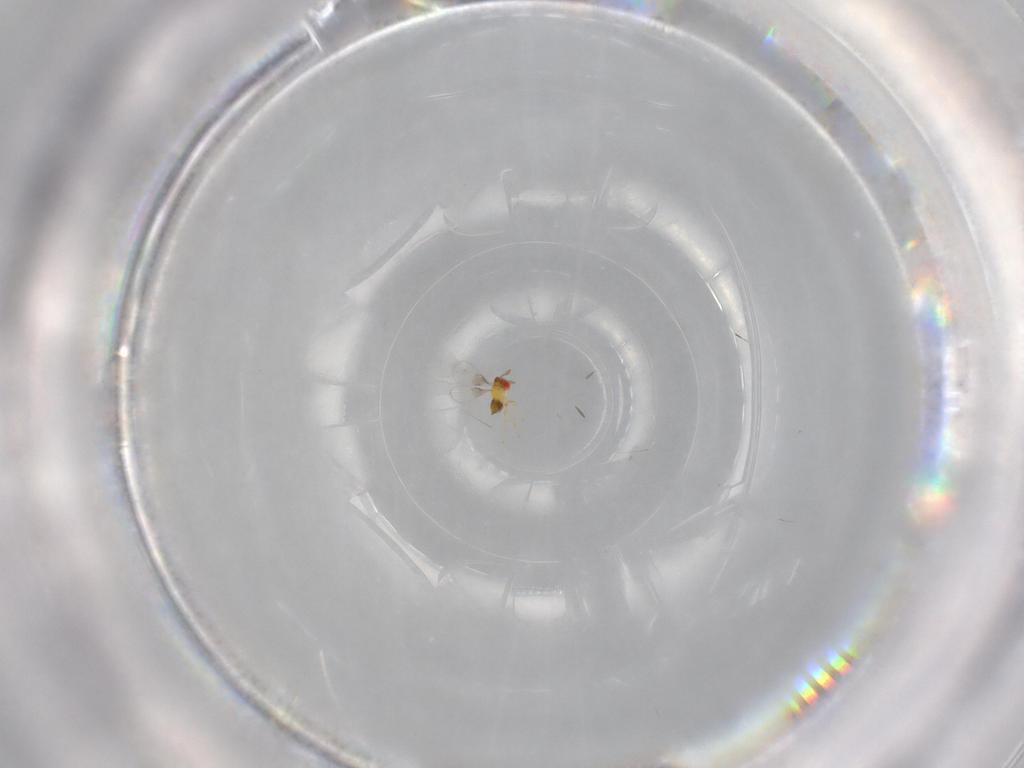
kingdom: Animalia
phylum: Arthropoda
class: Insecta
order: Hymenoptera
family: Trichogrammatidae
